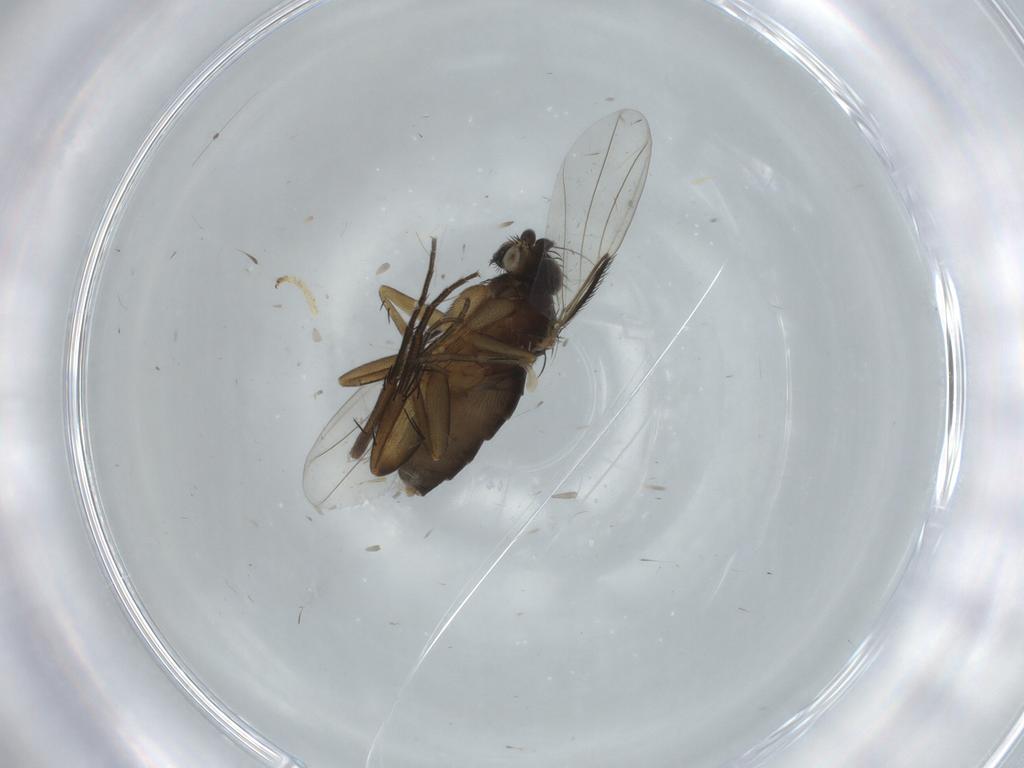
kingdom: Animalia
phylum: Arthropoda
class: Insecta
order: Diptera
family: Phoridae
